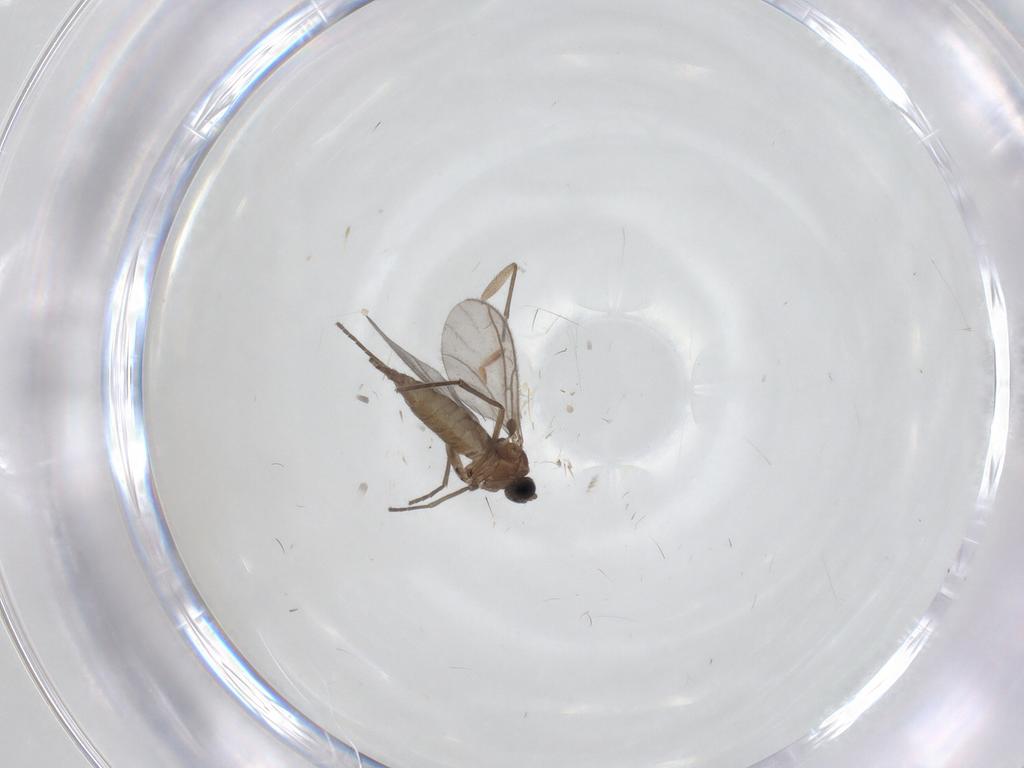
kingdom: Animalia
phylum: Arthropoda
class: Insecta
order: Diptera
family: Sciaridae
